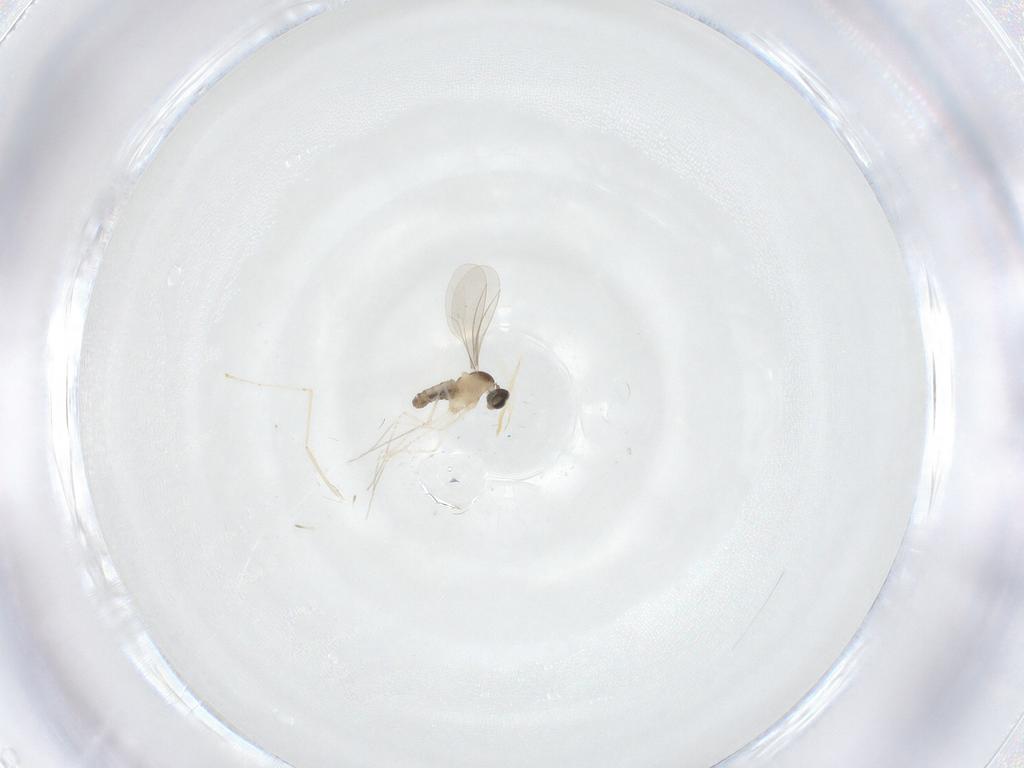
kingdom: Animalia
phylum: Arthropoda
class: Insecta
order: Diptera
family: Cecidomyiidae
